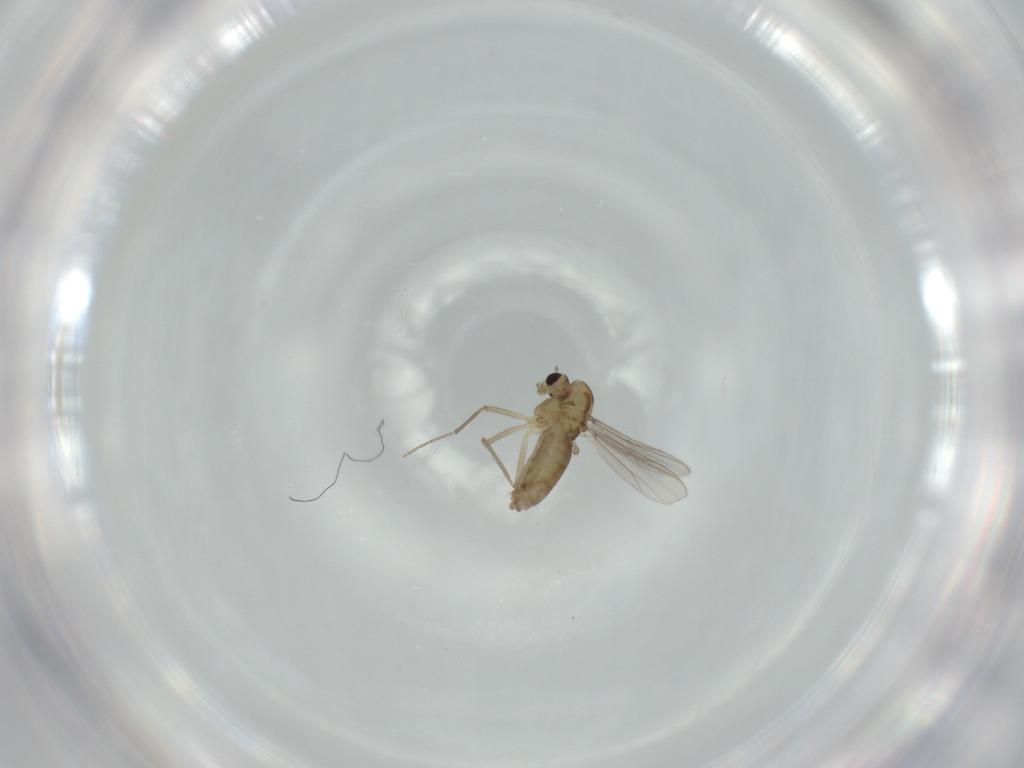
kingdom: Animalia
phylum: Arthropoda
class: Insecta
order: Diptera
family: Chironomidae
